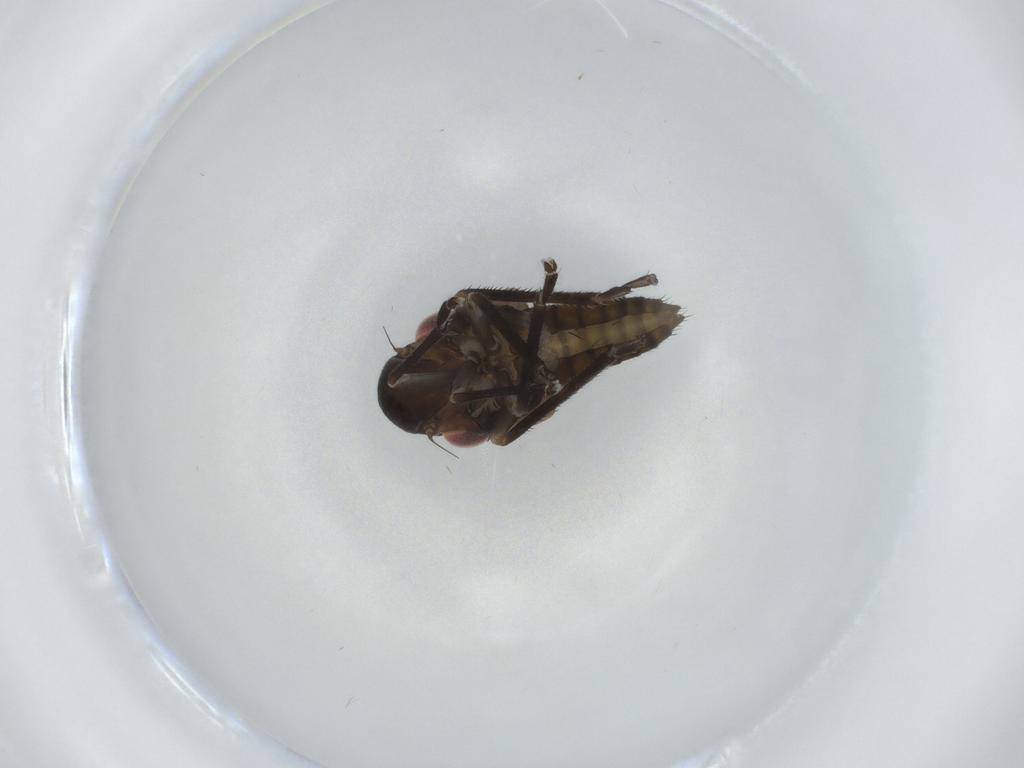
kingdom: Animalia
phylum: Arthropoda
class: Insecta
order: Hemiptera
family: Cicadellidae
